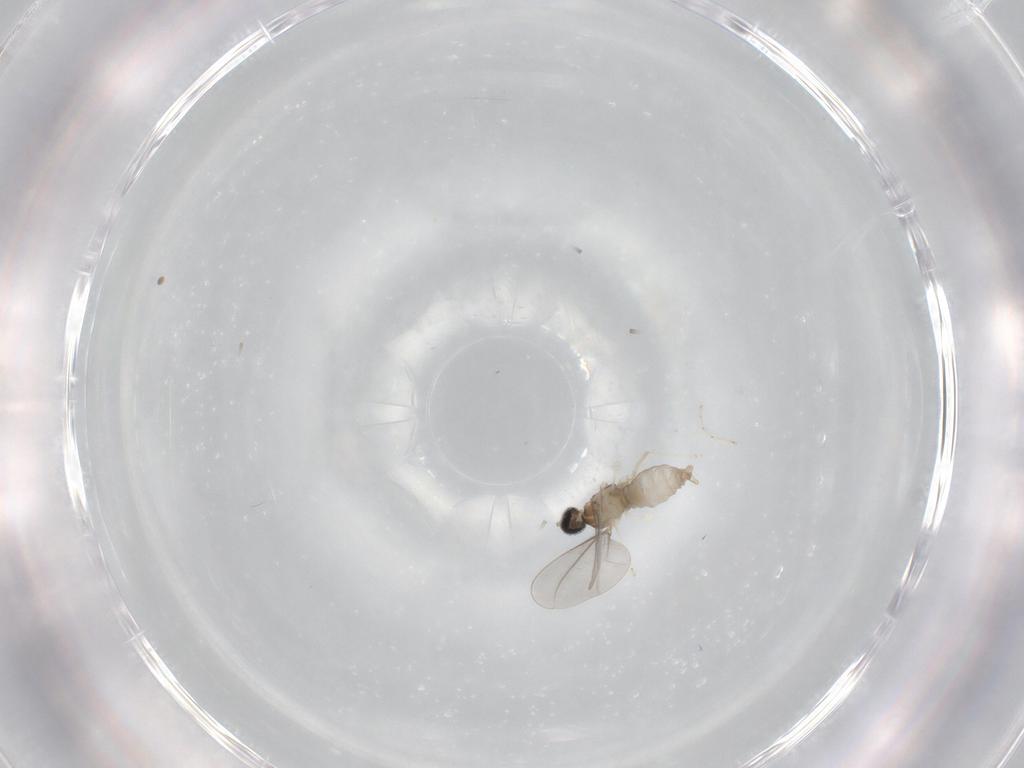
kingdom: Animalia
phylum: Arthropoda
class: Insecta
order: Diptera
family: Cecidomyiidae
